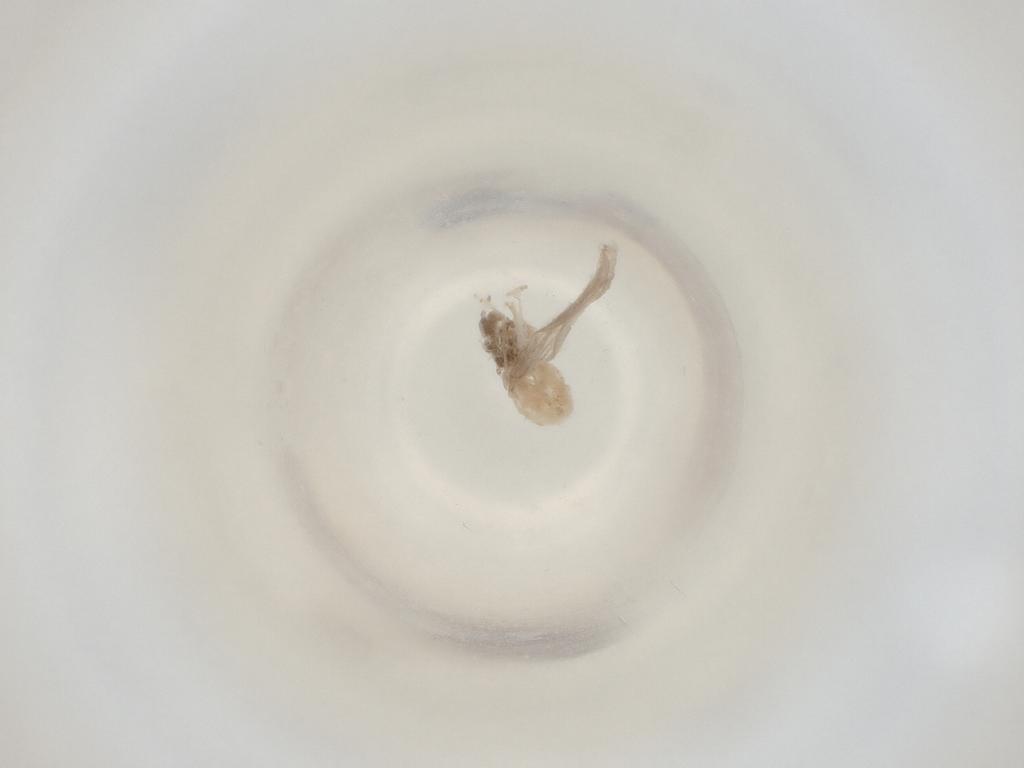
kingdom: Animalia
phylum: Arthropoda
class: Insecta
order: Diptera
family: Cecidomyiidae
